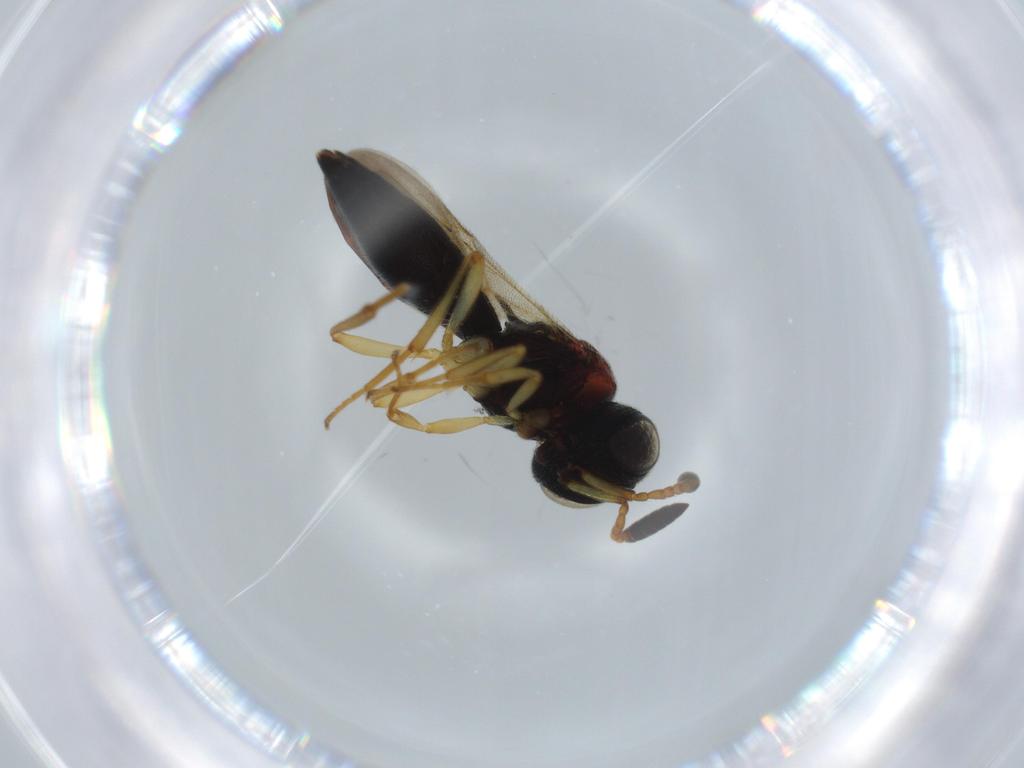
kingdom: Animalia
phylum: Arthropoda
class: Insecta
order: Hymenoptera
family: Platygastridae
